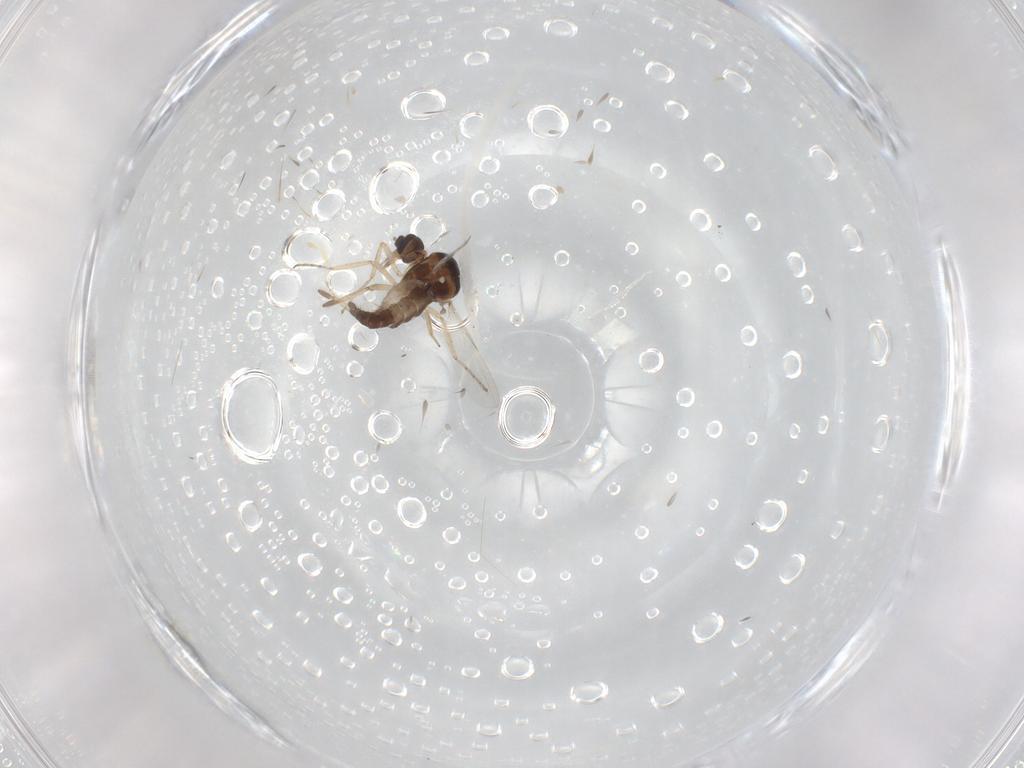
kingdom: Animalia
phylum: Arthropoda
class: Insecta
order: Diptera
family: Ceratopogonidae
